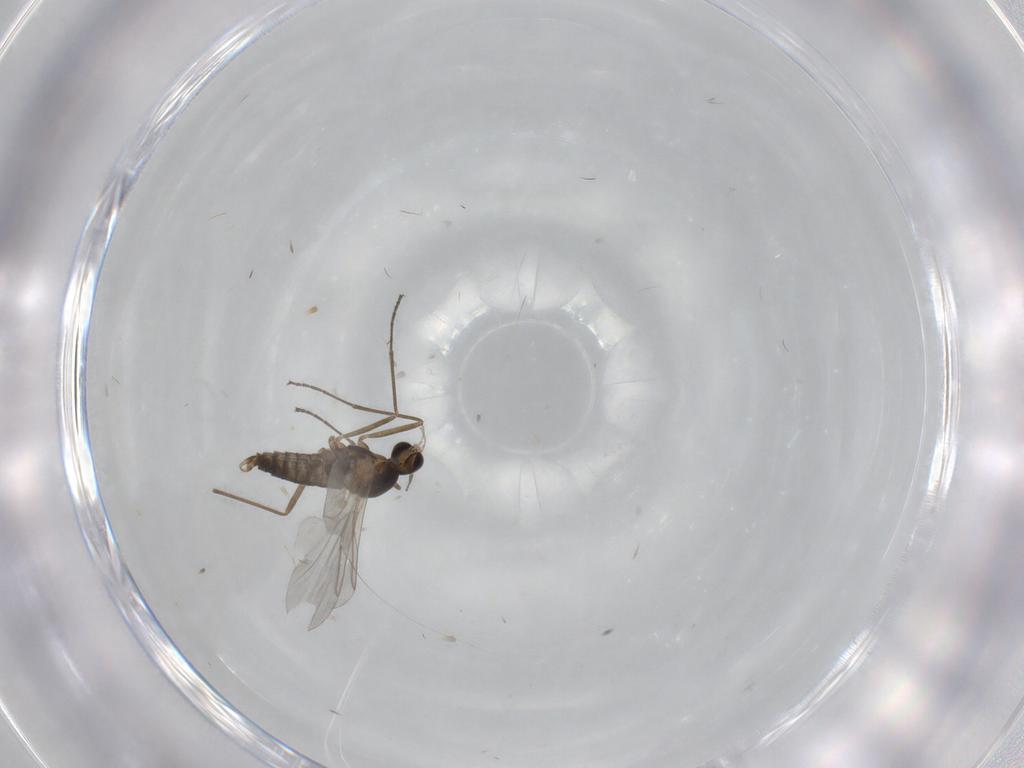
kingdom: Animalia
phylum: Arthropoda
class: Insecta
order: Diptera
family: Cecidomyiidae
